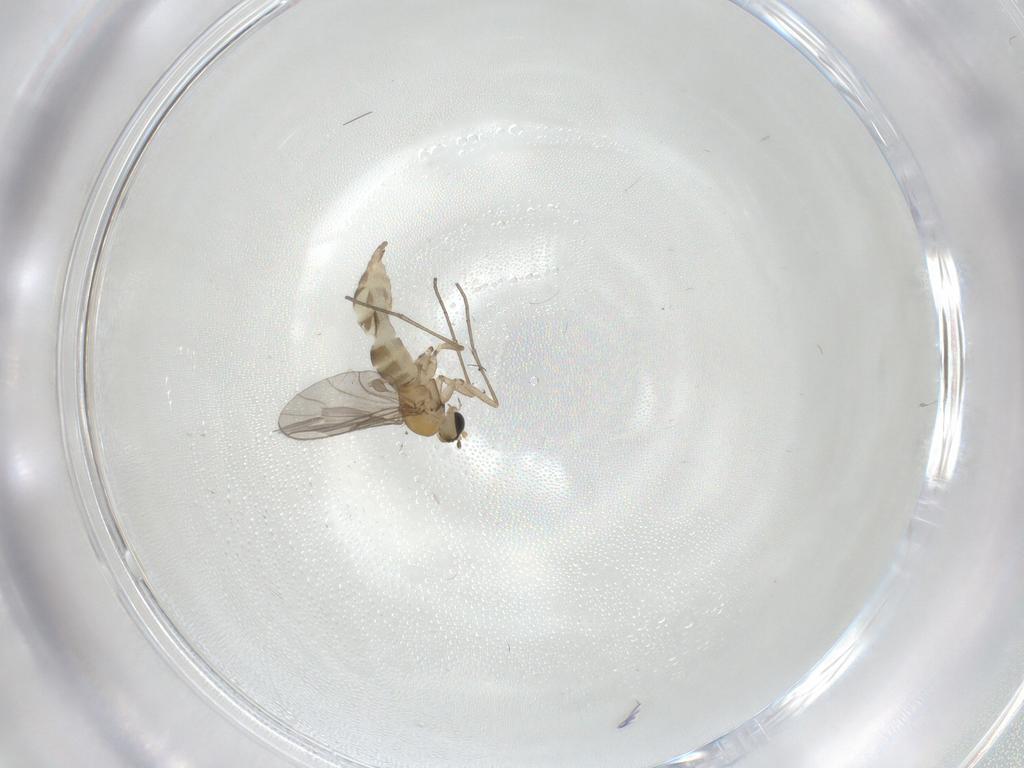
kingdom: Animalia
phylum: Arthropoda
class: Insecta
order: Diptera
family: Sciaridae
